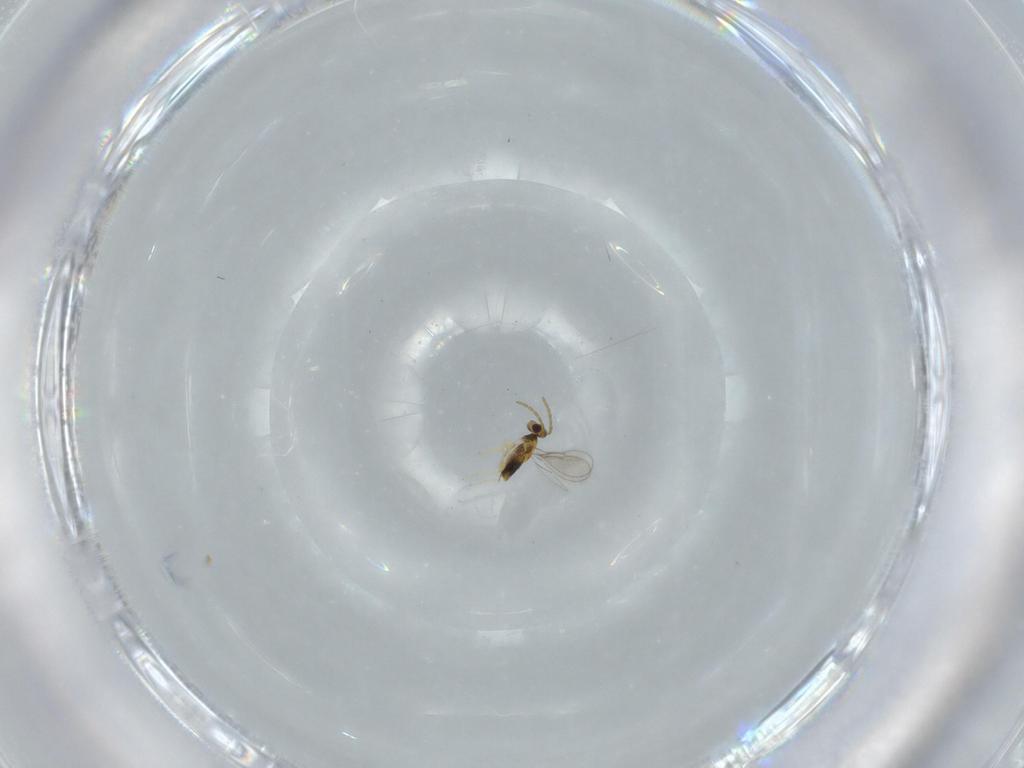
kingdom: Animalia
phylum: Arthropoda
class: Insecta
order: Hymenoptera
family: Aphelinidae
